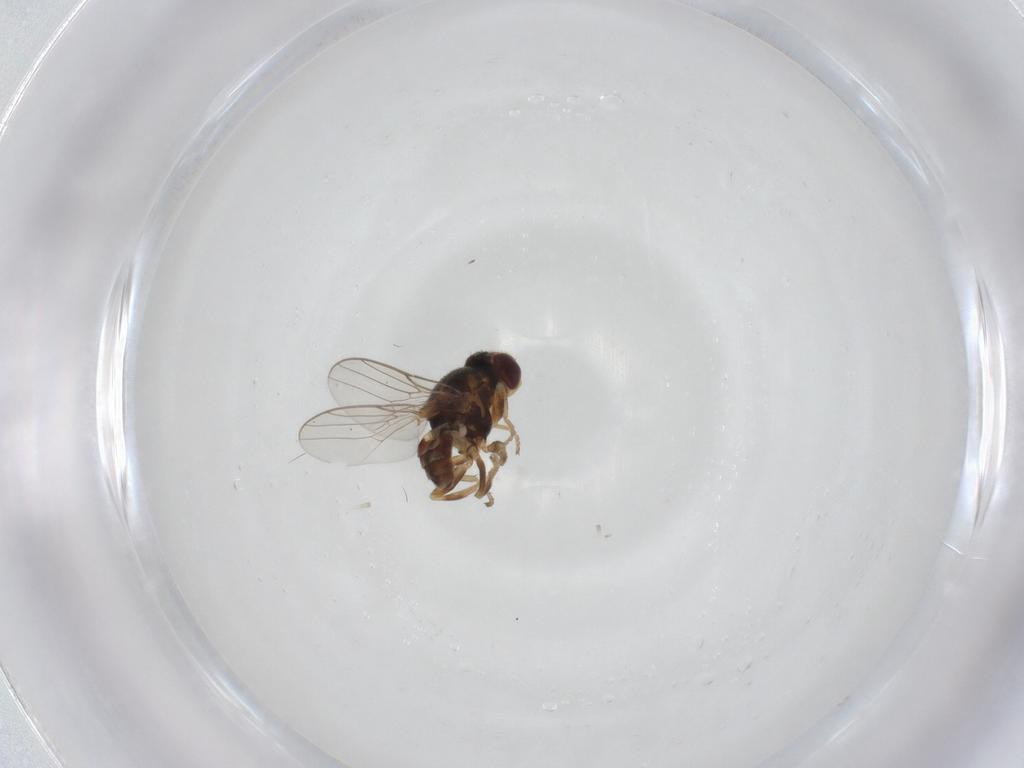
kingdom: Animalia
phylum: Arthropoda
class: Insecta
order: Diptera
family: Chloropidae
